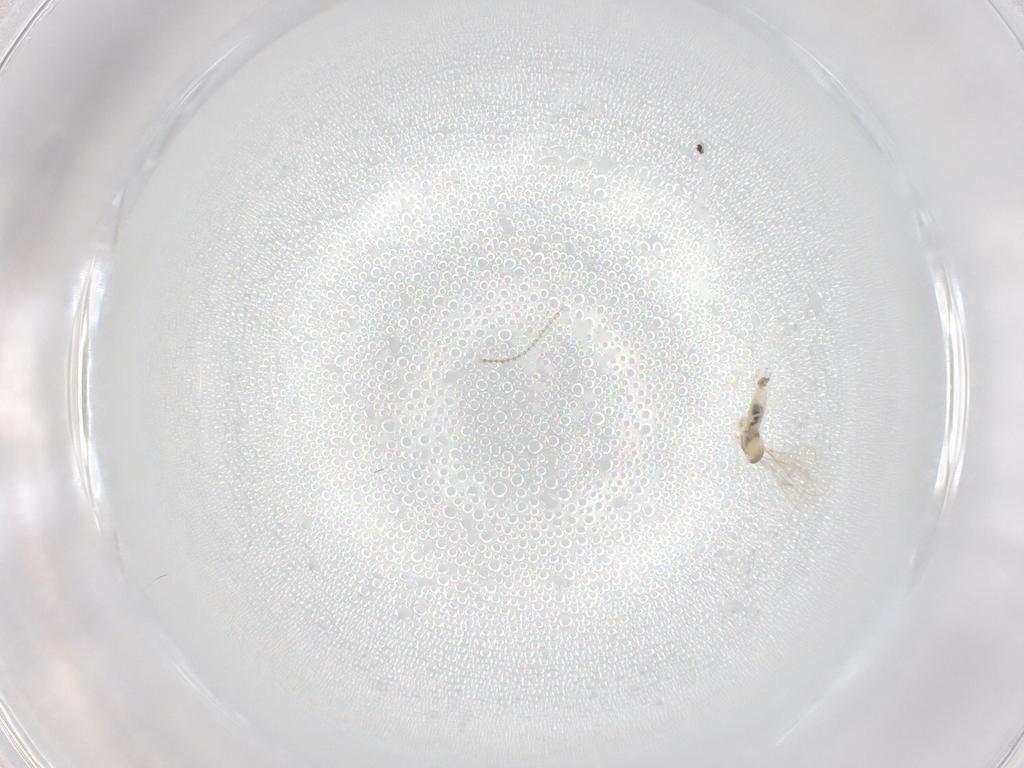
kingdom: Animalia
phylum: Arthropoda
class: Insecta
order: Diptera
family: Cecidomyiidae
